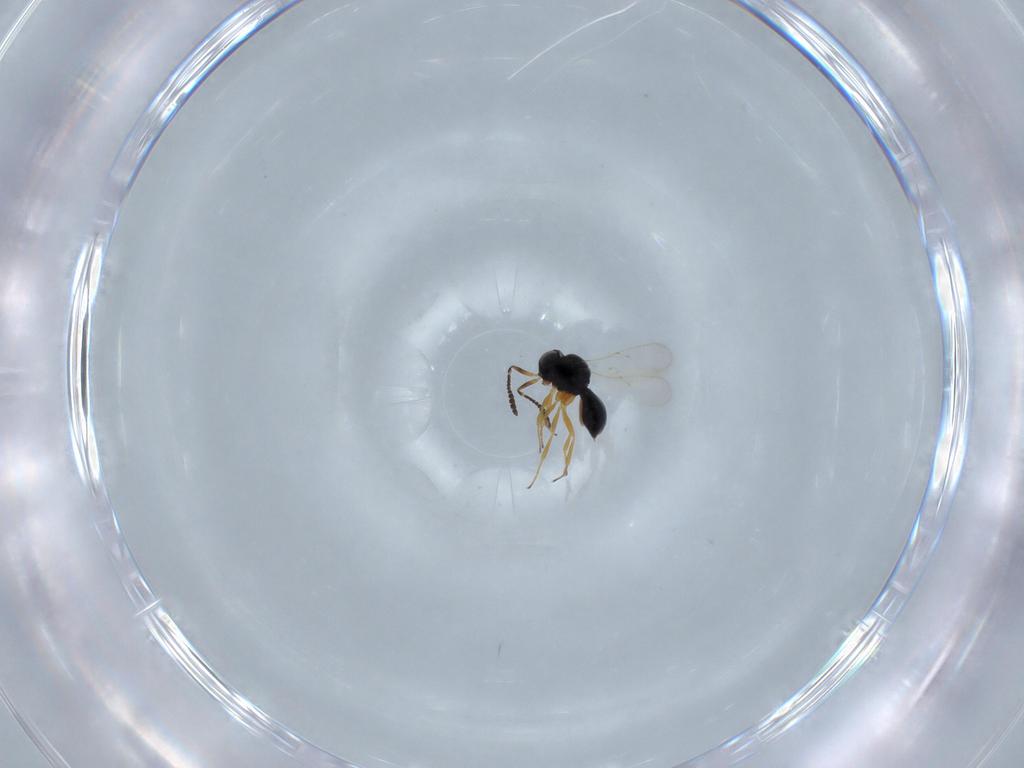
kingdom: Animalia
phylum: Arthropoda
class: Insecta
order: Hymenoptera
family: Scelionidae
